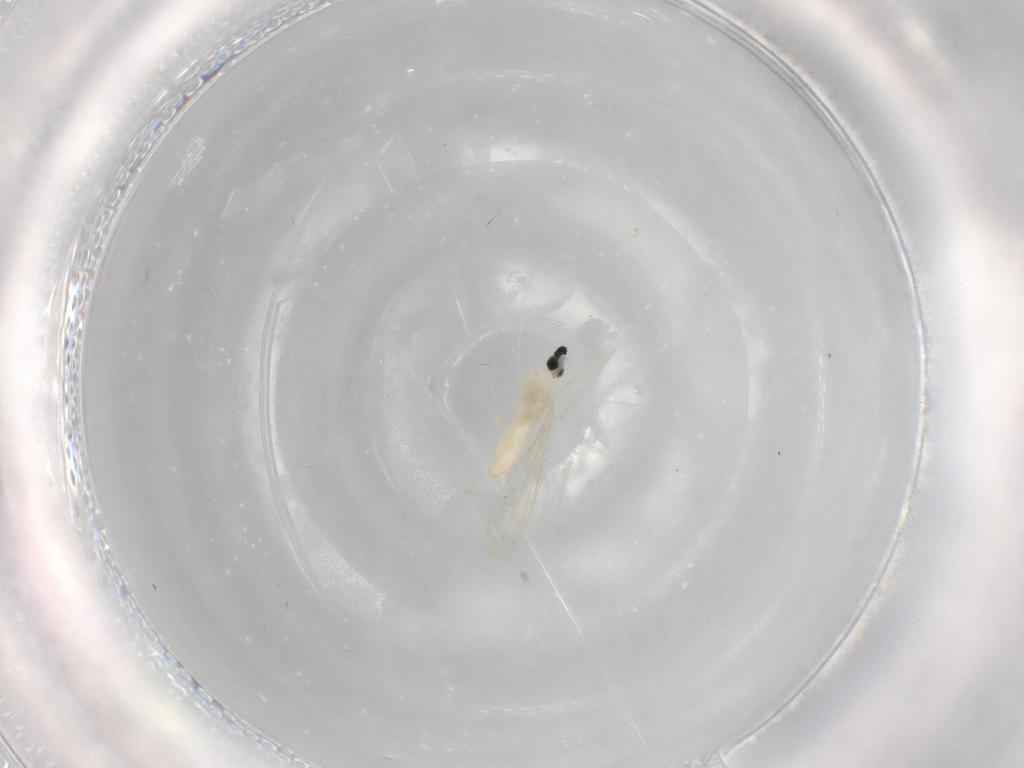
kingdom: Animalia
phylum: Arthropoda
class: Insecta
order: Diptera
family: Cecidomyiidae
